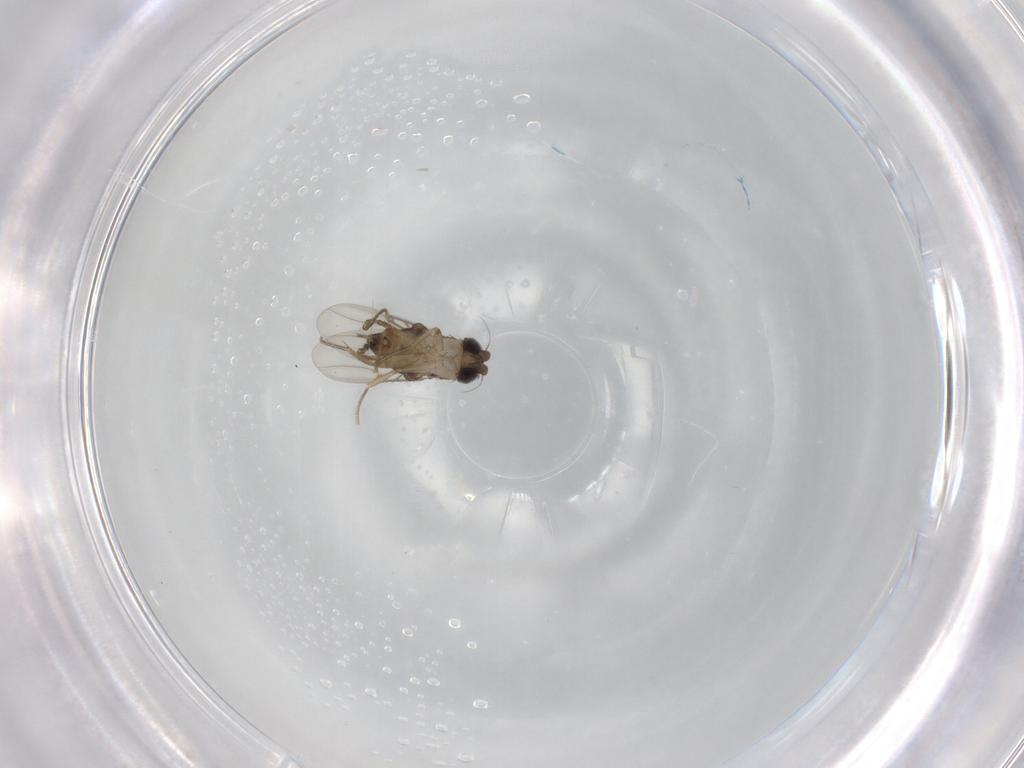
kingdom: Animalia
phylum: Arthropoda
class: Insecta
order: Diptera
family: Phoridae
